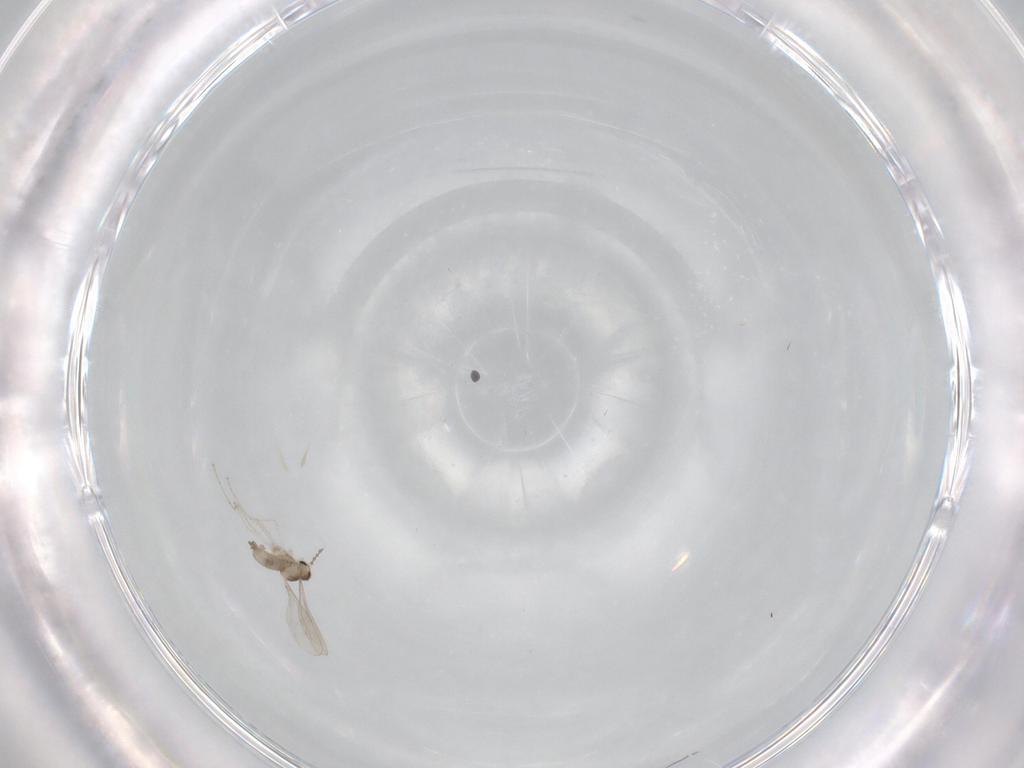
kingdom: Animalia
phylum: Arthropoda
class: Insecta
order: Diptera
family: Cecidomyiidae
